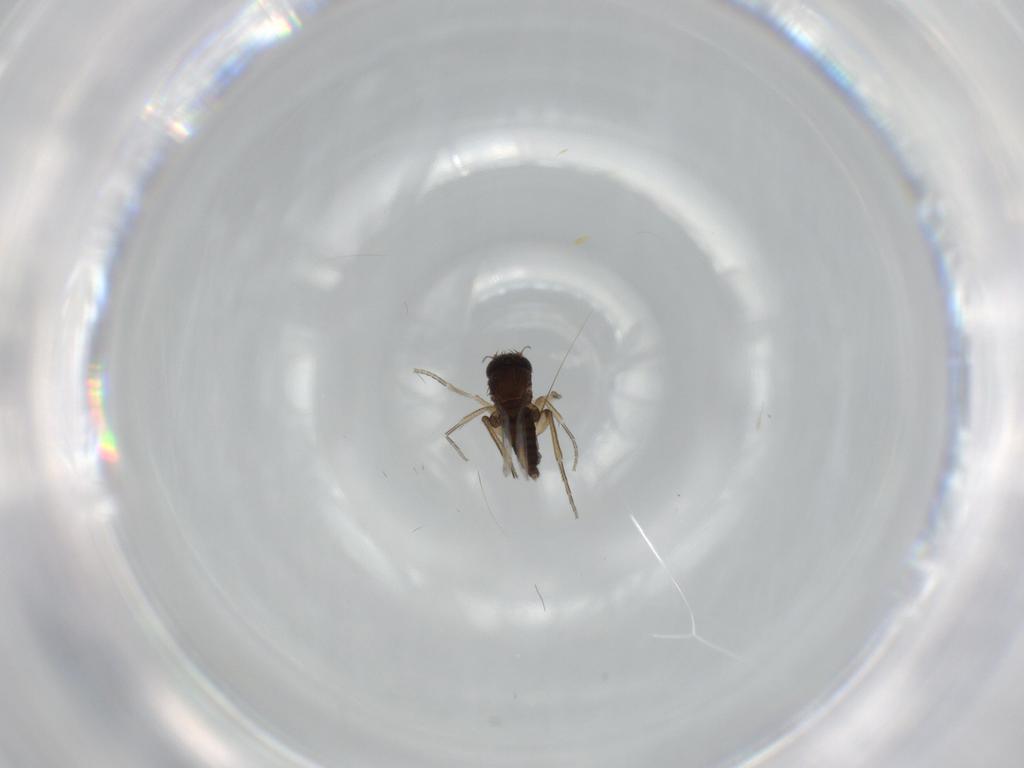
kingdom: Animalia
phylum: Arthropoda
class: Insecta
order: Diptera
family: Phoridae
